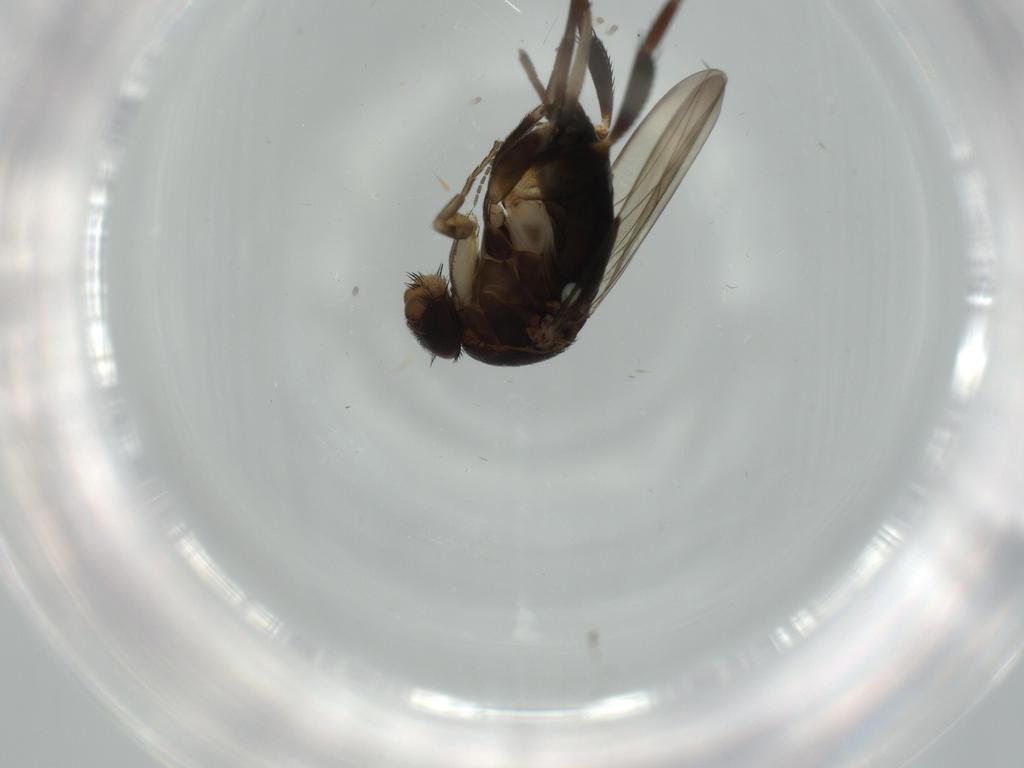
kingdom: Animalia
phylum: Arthropoda
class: Insecta
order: Diptera
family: Phoridae
